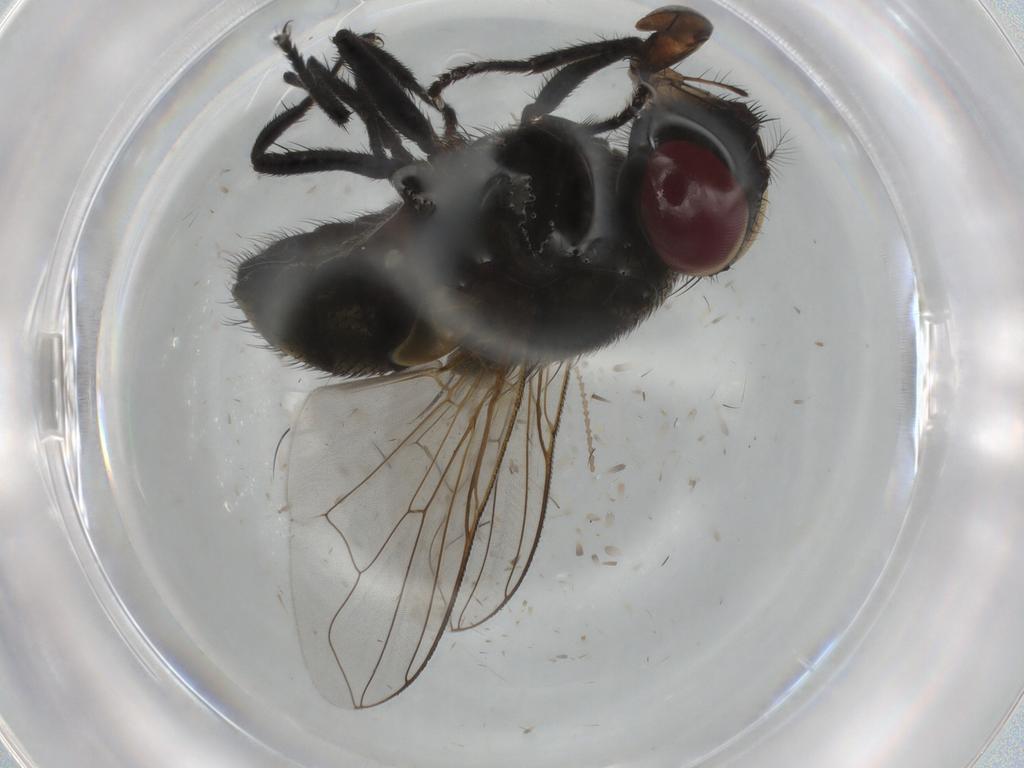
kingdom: Animalia
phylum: Arthropoda
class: Insecta
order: Diptera
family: Muscidae
